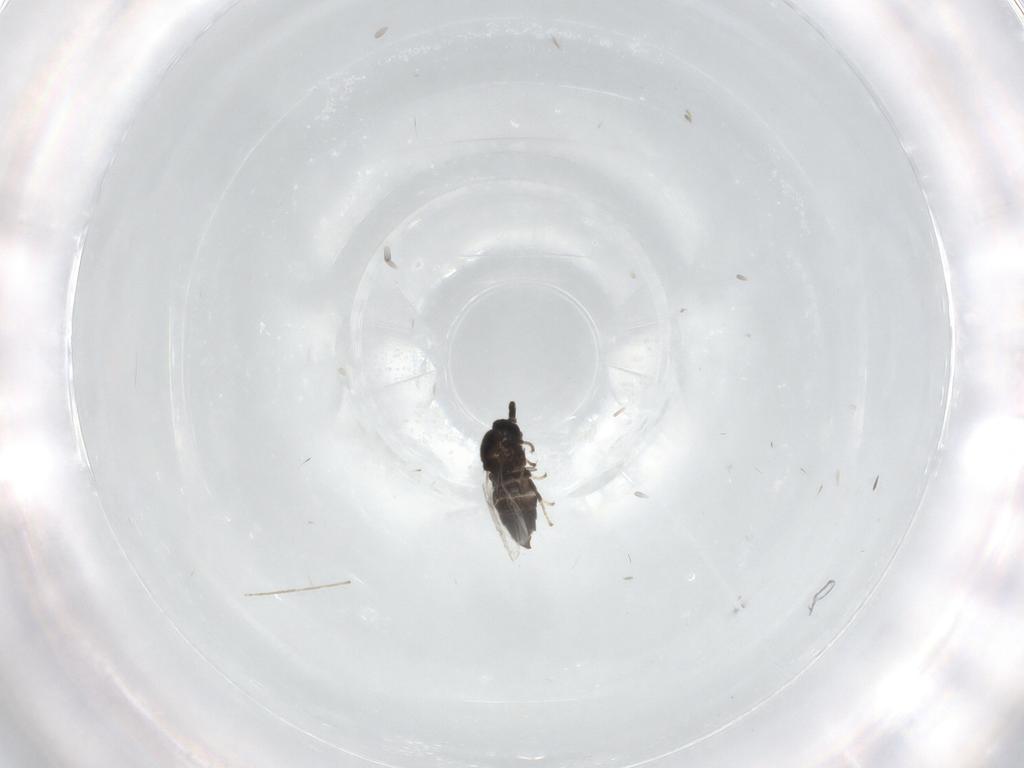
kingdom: Animalia
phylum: Arthropoda
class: Insecta
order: Diptera
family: Scatopsidae
